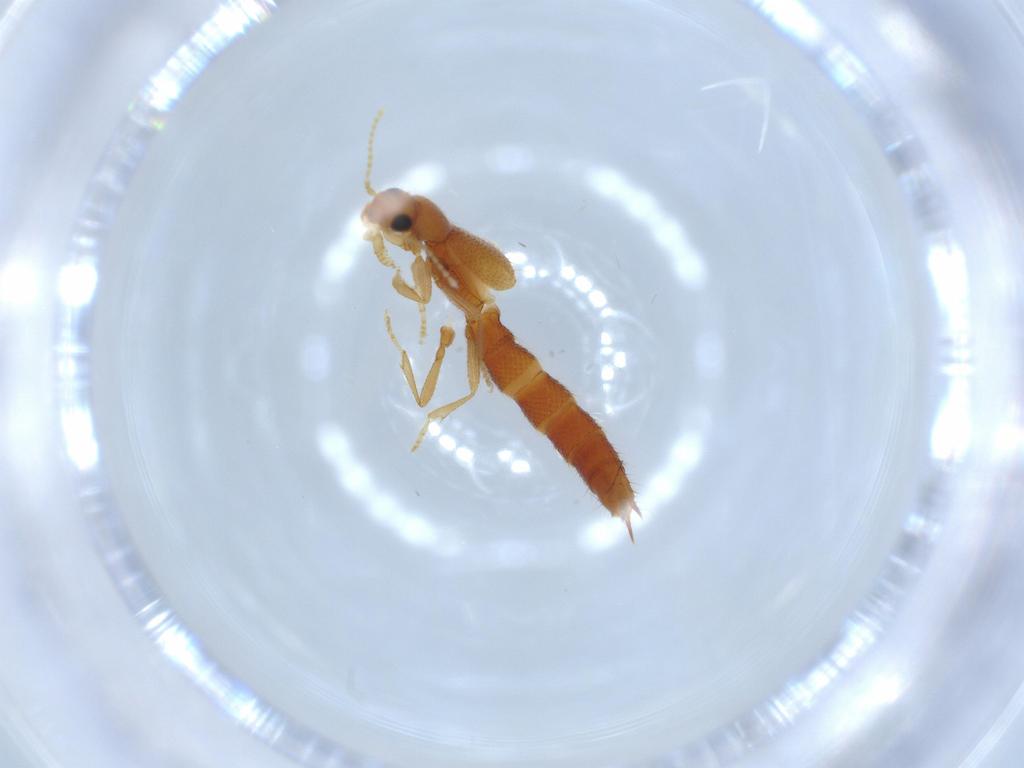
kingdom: Animalia
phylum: Arthropoda
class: Insecta
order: Coleoptera
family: Staphylinidae
